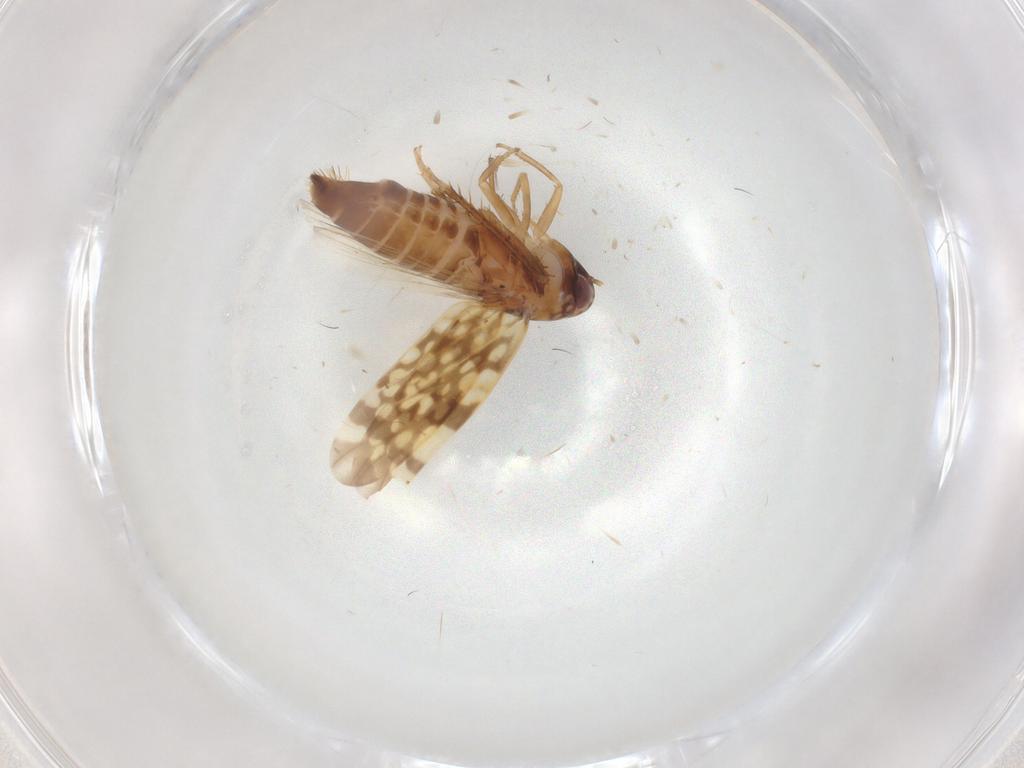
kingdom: Animalia
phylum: Arthropoda
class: Insecta
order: Hemiptera
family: Cicadellidae
